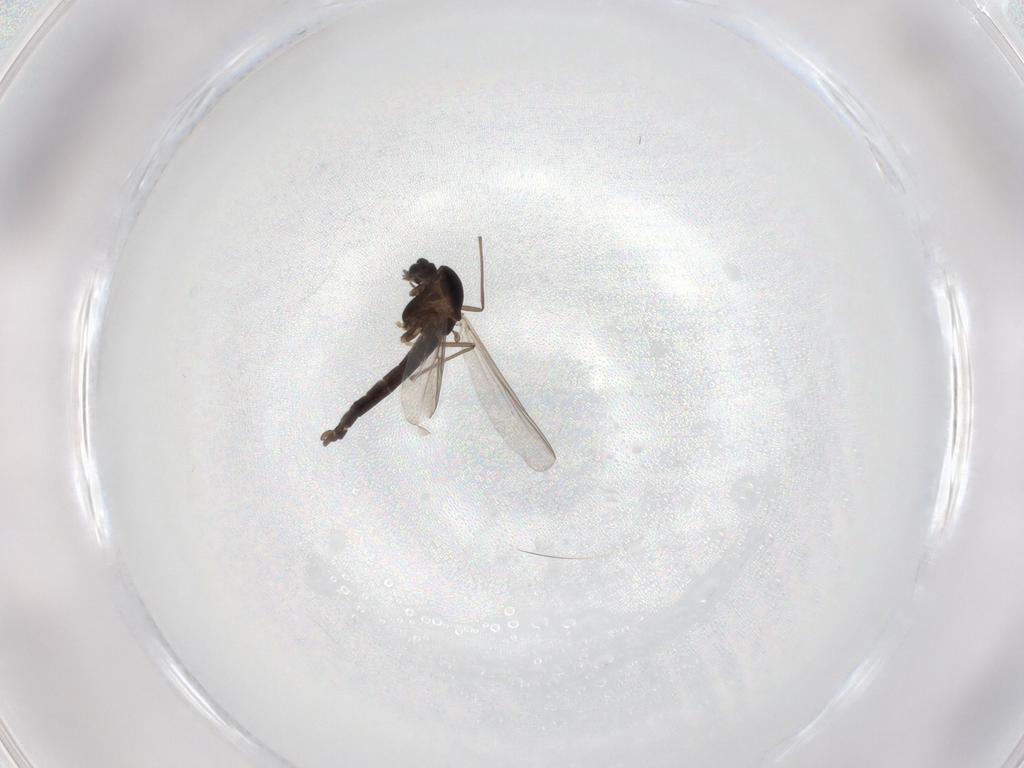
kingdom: Animalia
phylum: Arthropoda
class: Insecta
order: Diptera
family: Chironomidae
